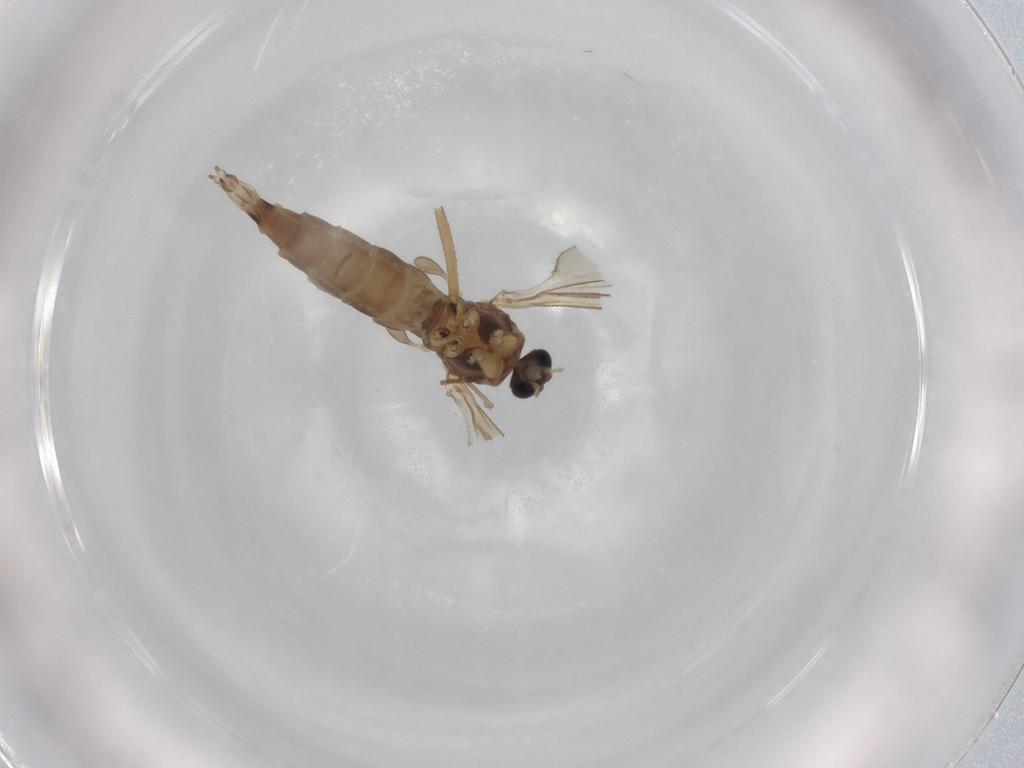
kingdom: Animalia
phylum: Arthropoda
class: Insecta
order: Diptera
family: Sciaridae
